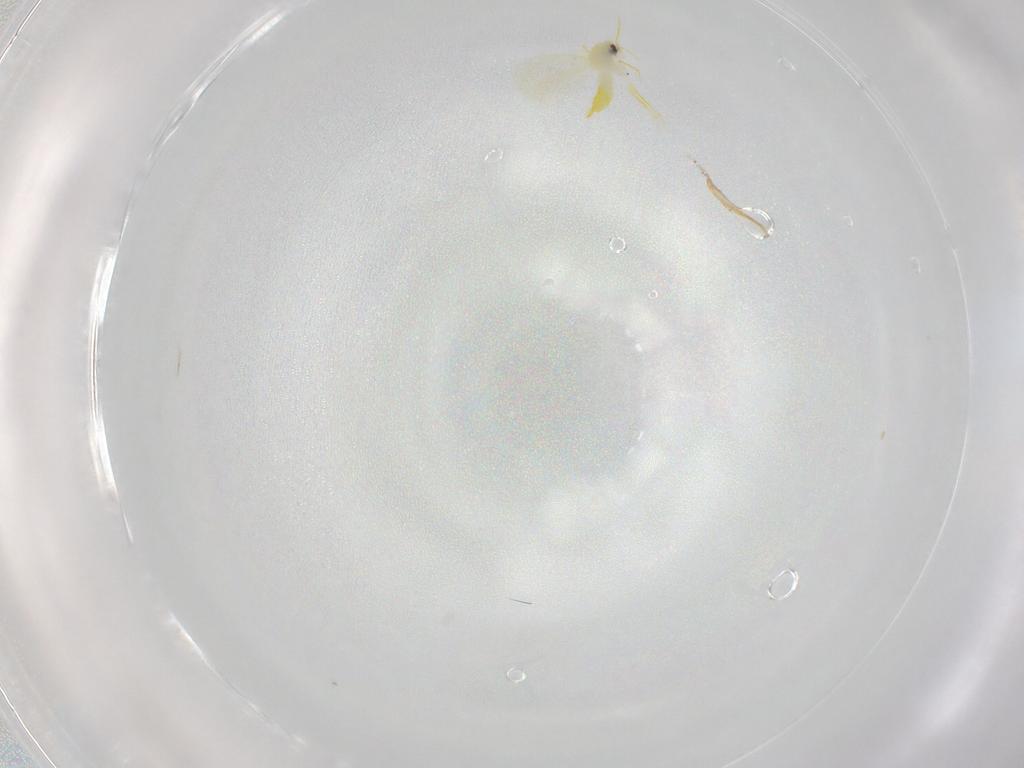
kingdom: Animalia
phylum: Arthropoda
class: Insecta
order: Hemiptera
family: Aleyrodidae
